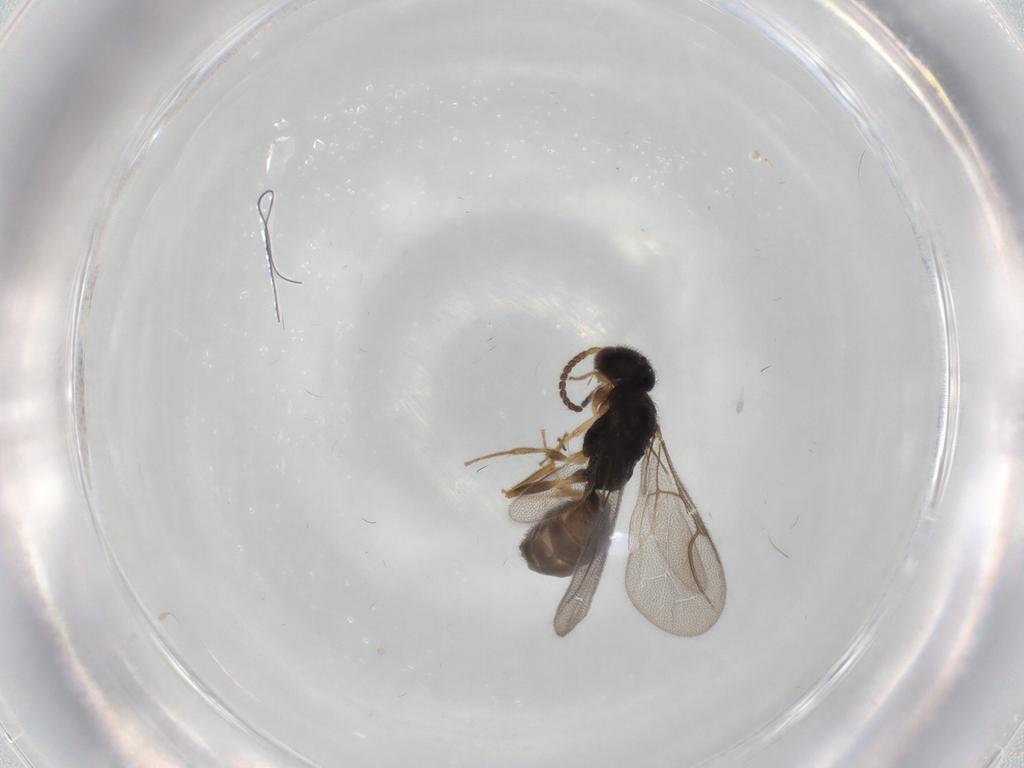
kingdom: Animalia
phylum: Arthropoda
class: Insecta
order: Hymenoptera
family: Bethylidae
